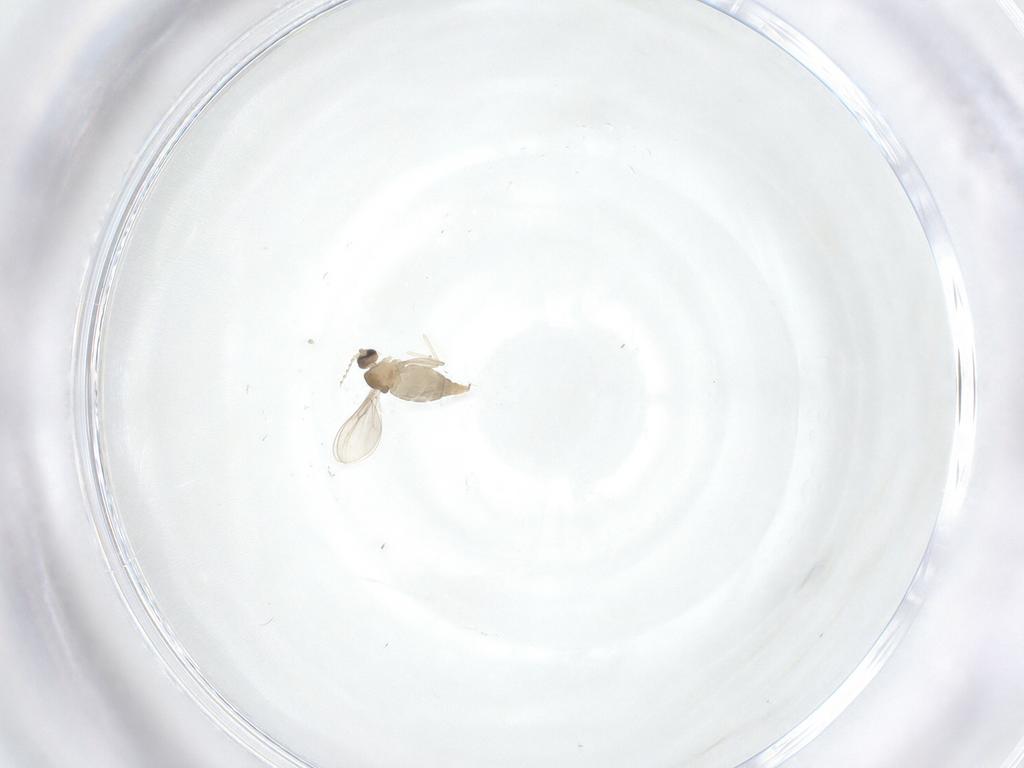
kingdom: Animalia
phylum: Arthropoda
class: Insecta
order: Diptera
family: Cecidomyiidae
